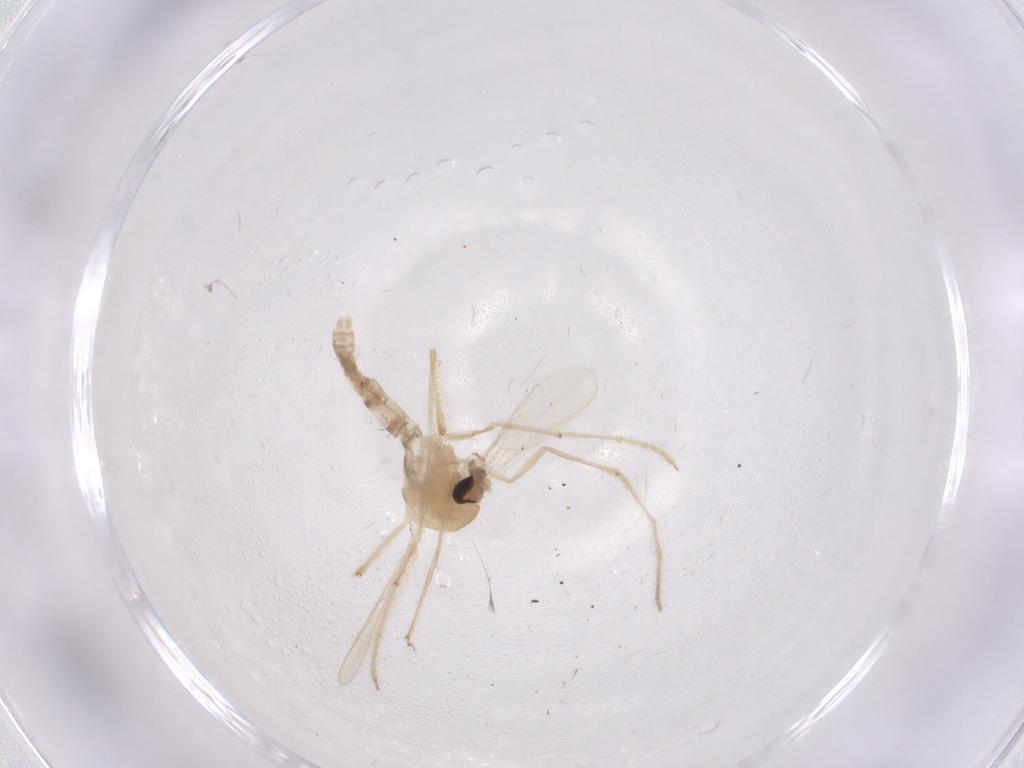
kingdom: Animalia
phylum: Arthropoda
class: Insecta
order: Diptera
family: Chironomidae
